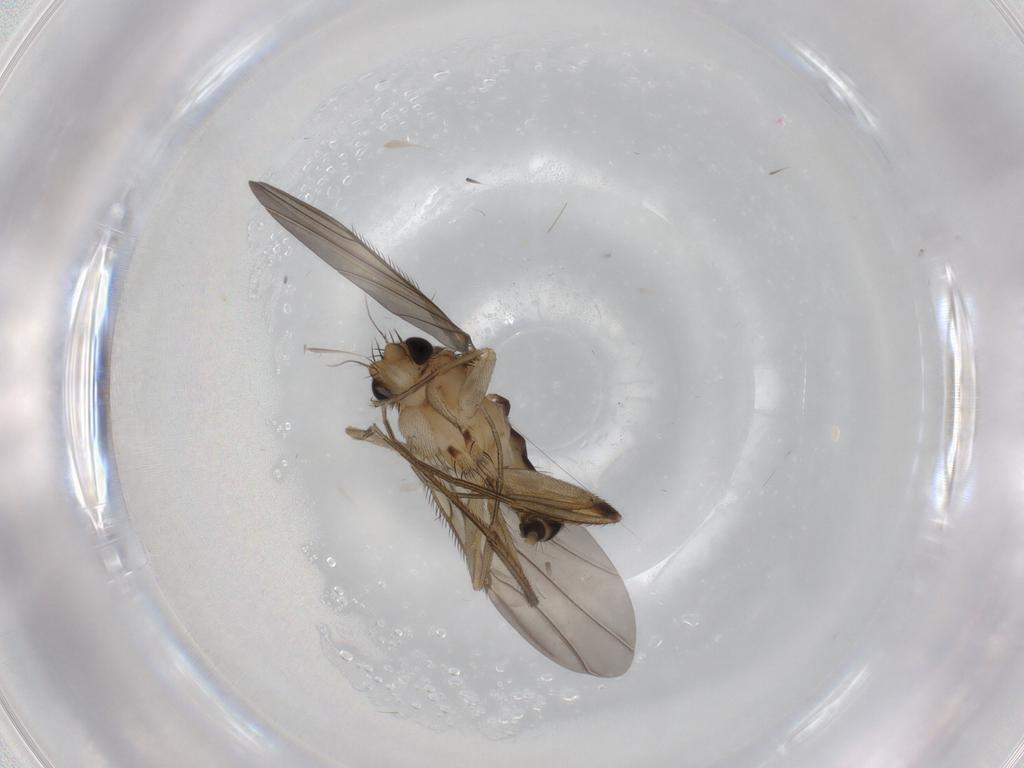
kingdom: Animalia
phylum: Arthropoda
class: Insecta
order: Diptera
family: Phoridae
